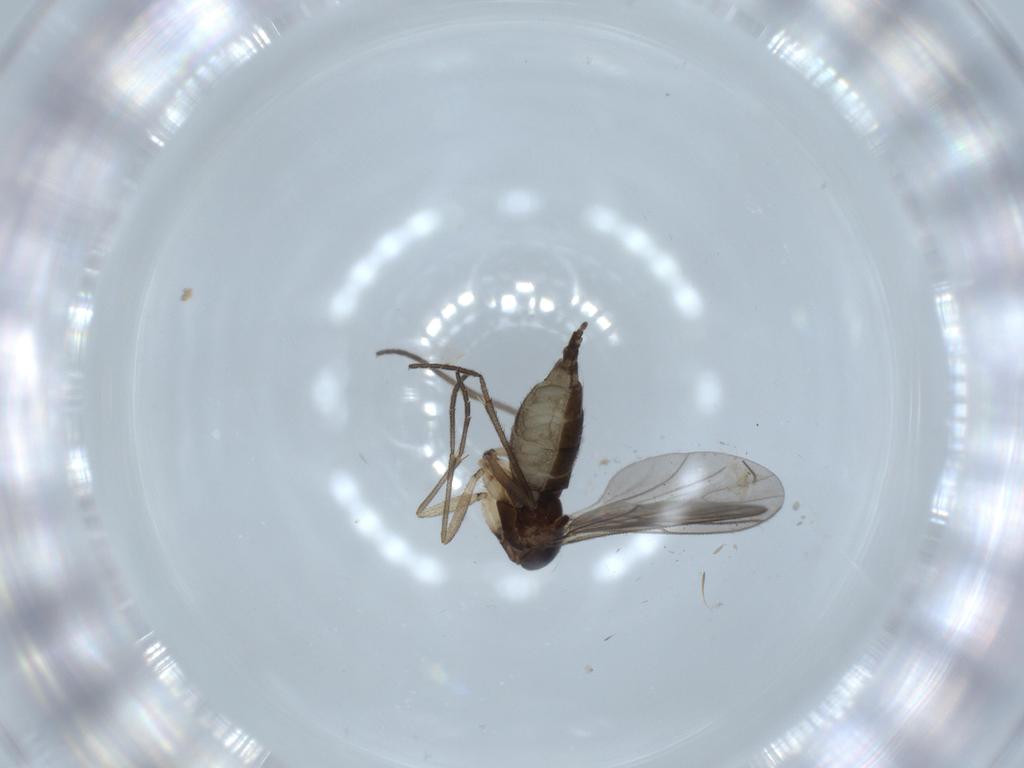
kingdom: Animalia
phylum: Arthropoda
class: Insecta
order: Diptera
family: Sciaridae
